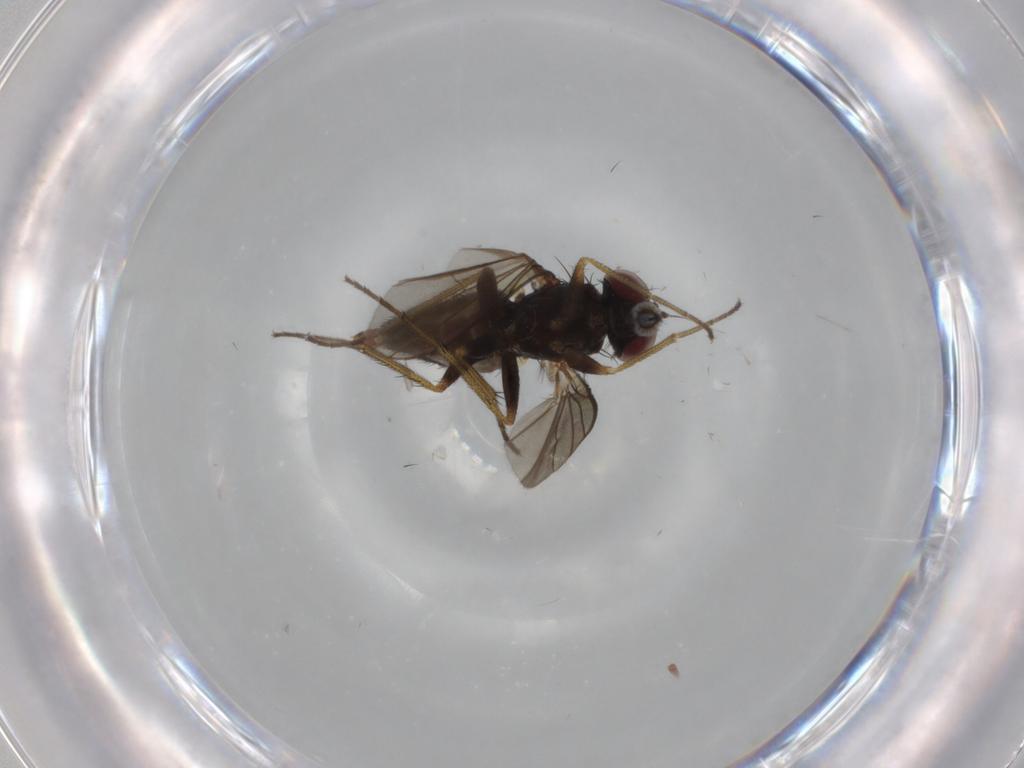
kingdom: Animalia
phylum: Arthropoda
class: Insecta
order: Diptera
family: Dolichopodidae
